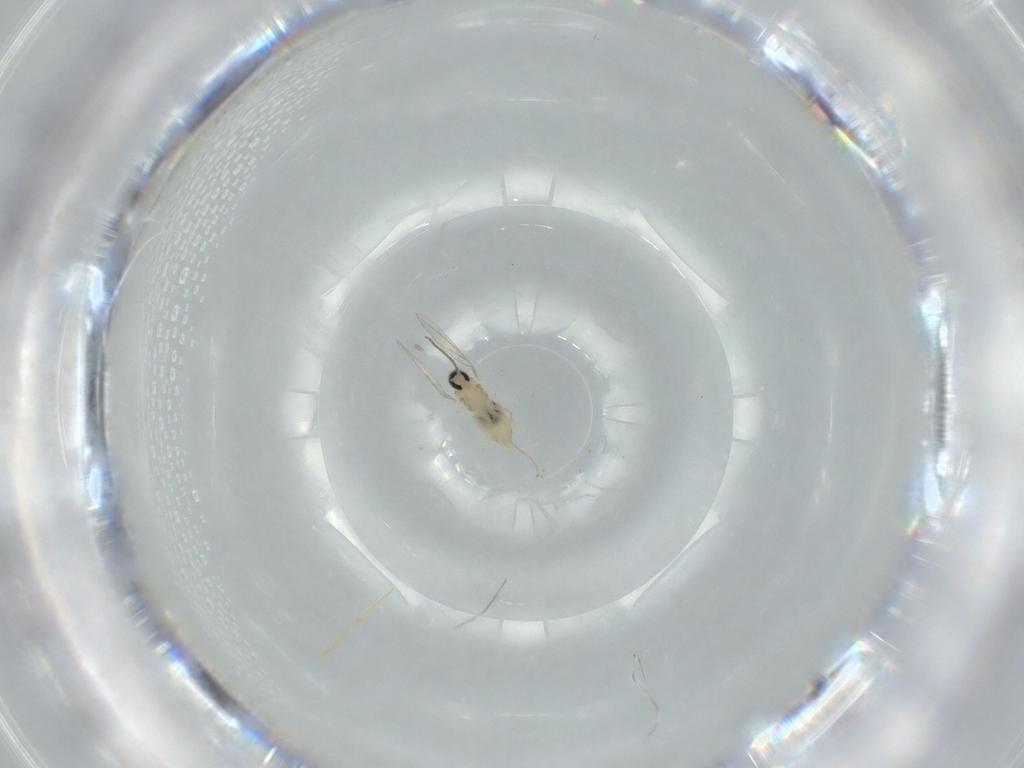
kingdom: Animalia
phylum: Arthropoda
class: Insecta
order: Diptera
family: Cecidomyiidae
